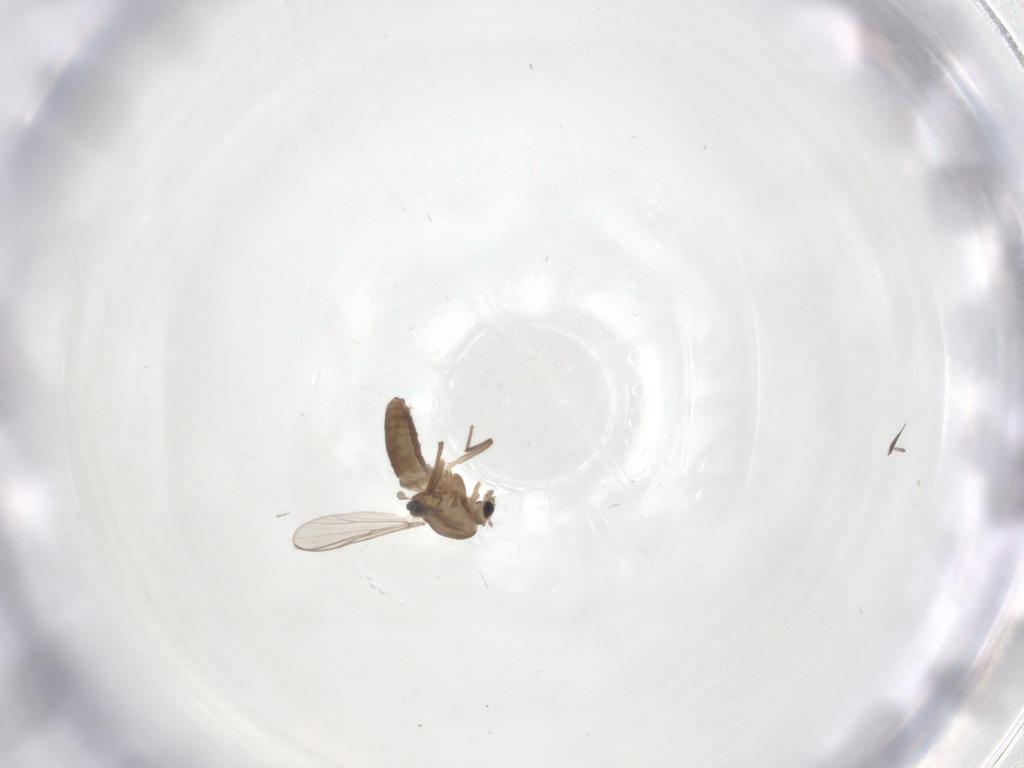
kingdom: Animalia
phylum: Arthropoda
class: Insecta
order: Diptera
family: Chironomidae
